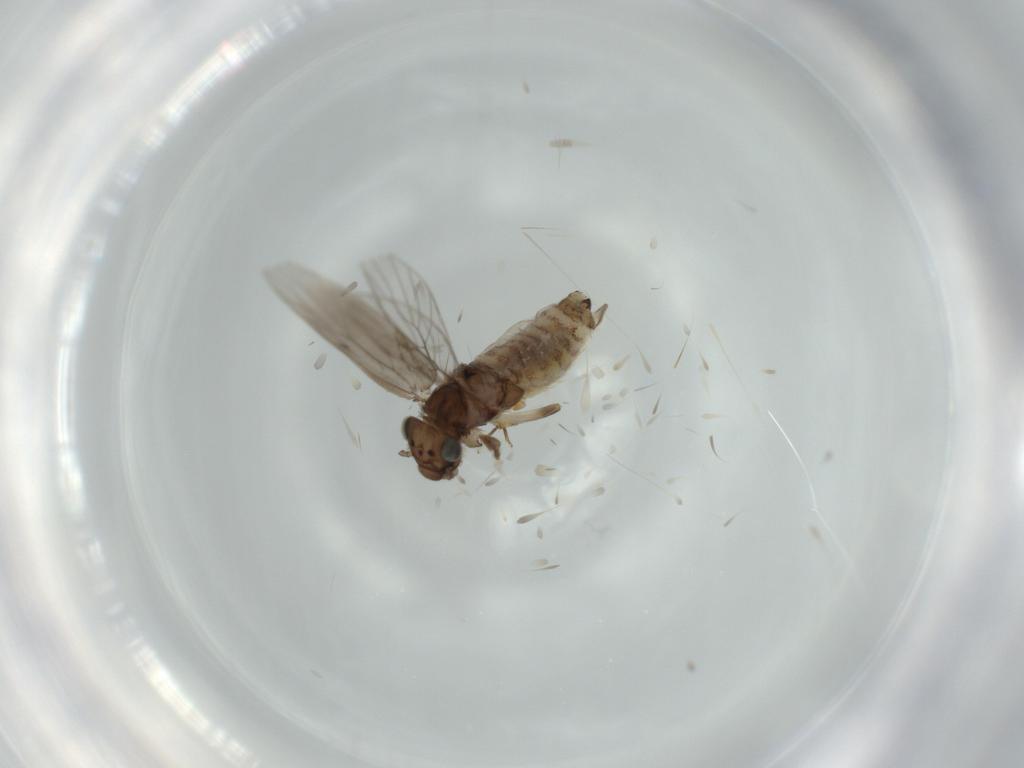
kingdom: Animalia
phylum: Arthropoda
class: Insecta
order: Psocodea
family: Lepidopsocidae
